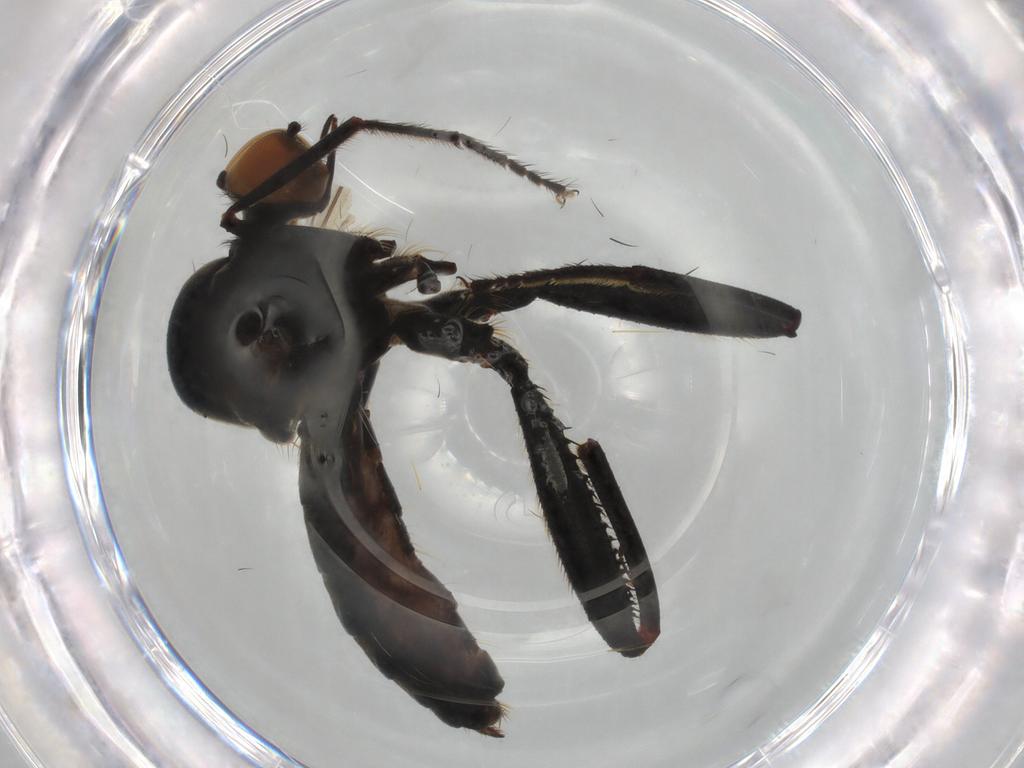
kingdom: Animalia
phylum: Arthropoda
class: Insecta
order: Diptera
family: Hybotidae
